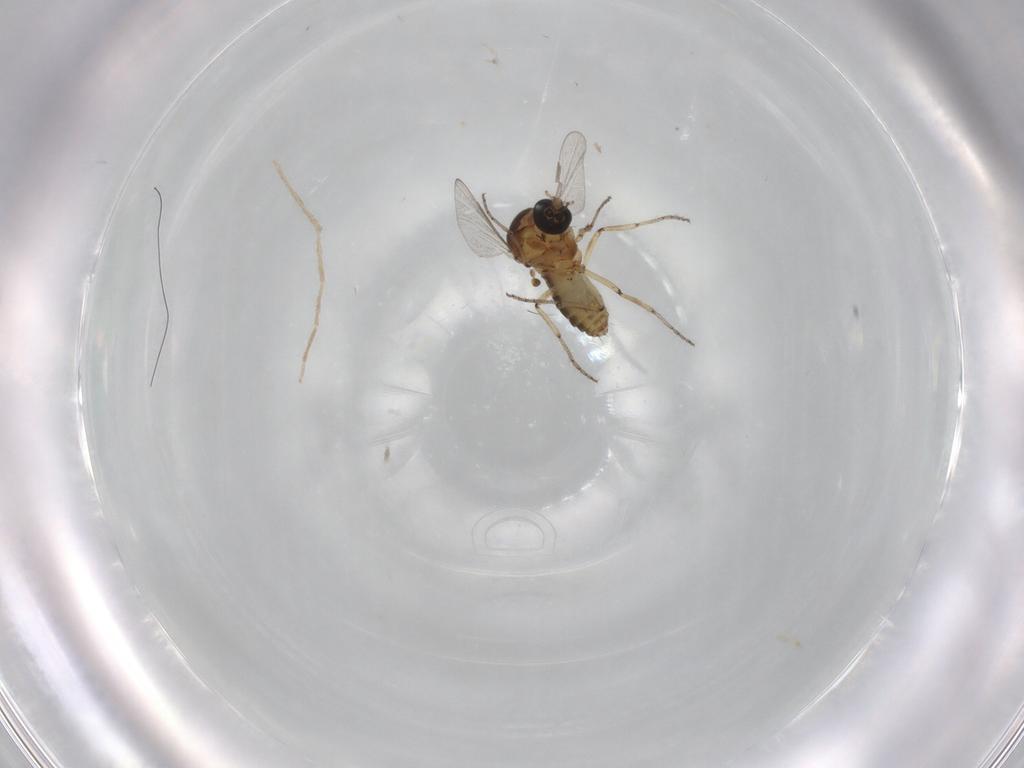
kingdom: Animalia
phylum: Arthropoda
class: Insecta
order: Diptera
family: Ceratopogonidae
